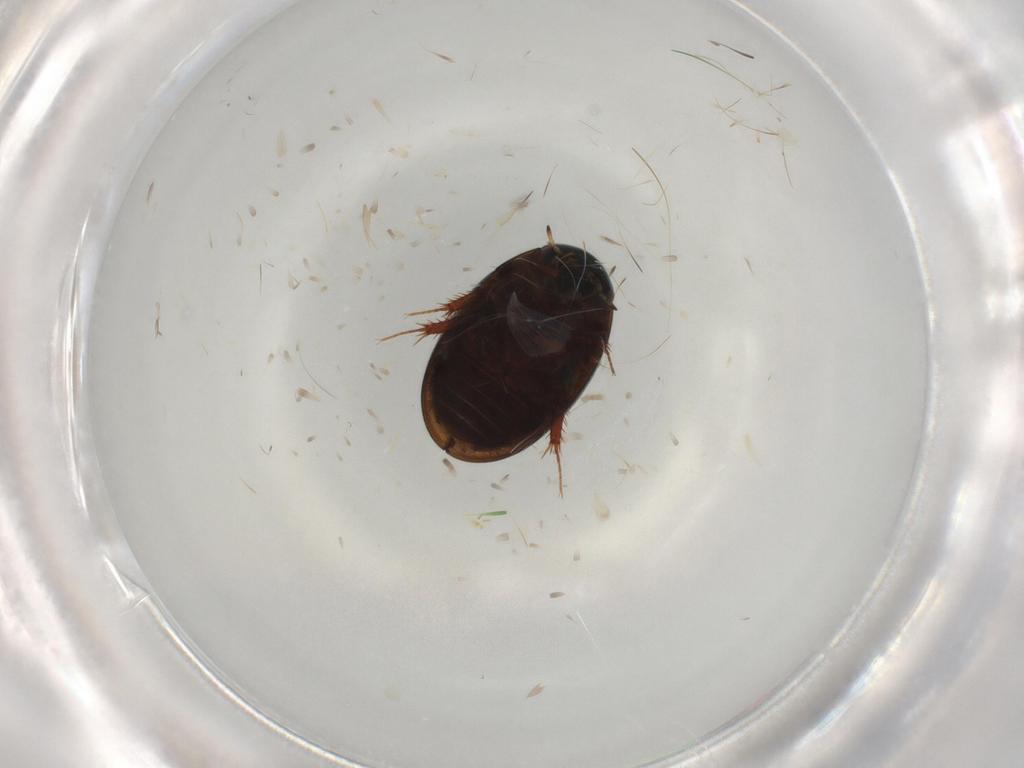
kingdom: Animalia
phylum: Arthropoda
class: Insecta
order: Coleoptera
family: Hydrophilidae
